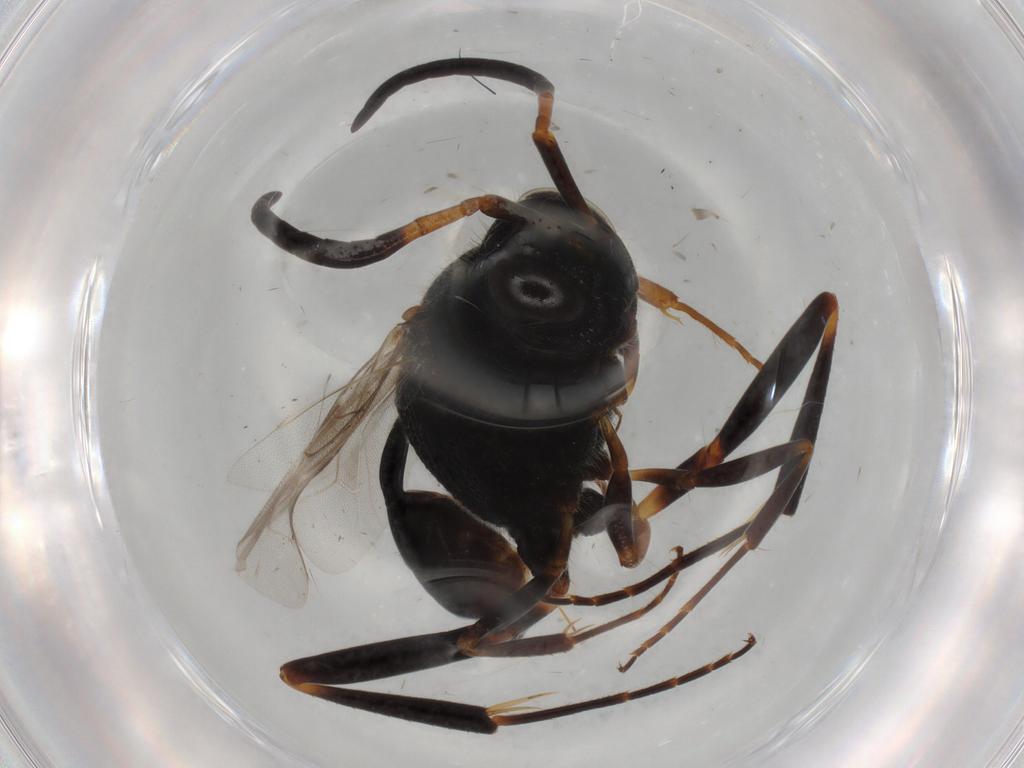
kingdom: Animalia
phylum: Arthropoda
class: Insecta
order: Hymenoptera
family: Evaniidae
